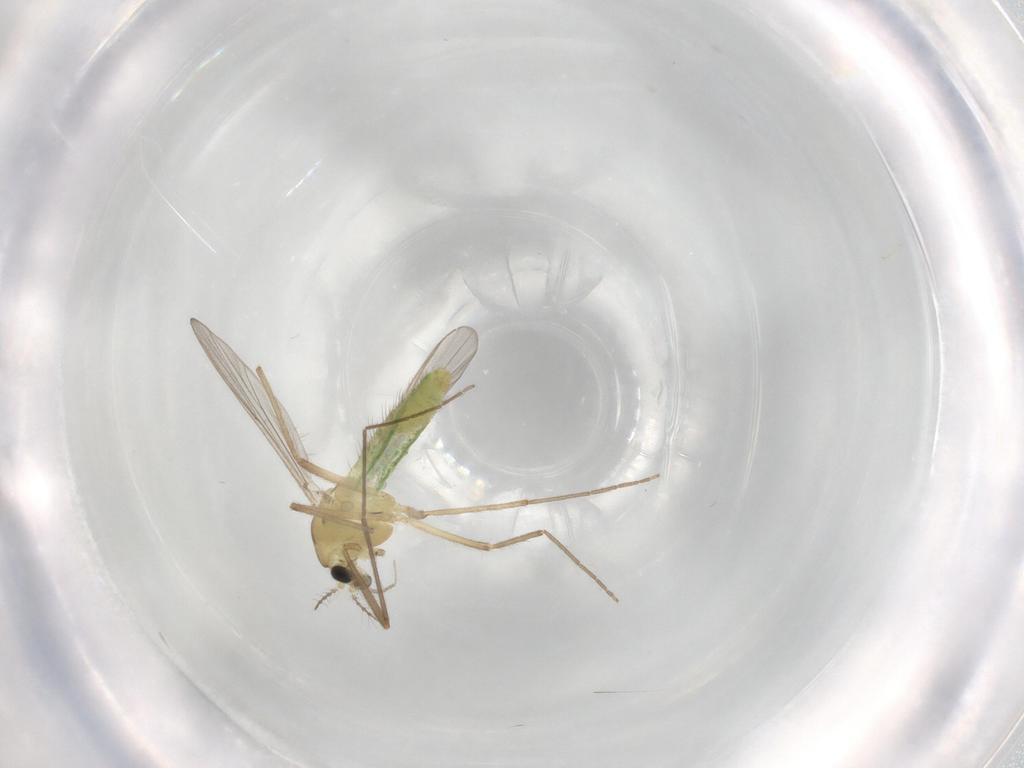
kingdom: Animalia
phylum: Arthropoda
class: Insecta
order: Diptera
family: Chironomidae
